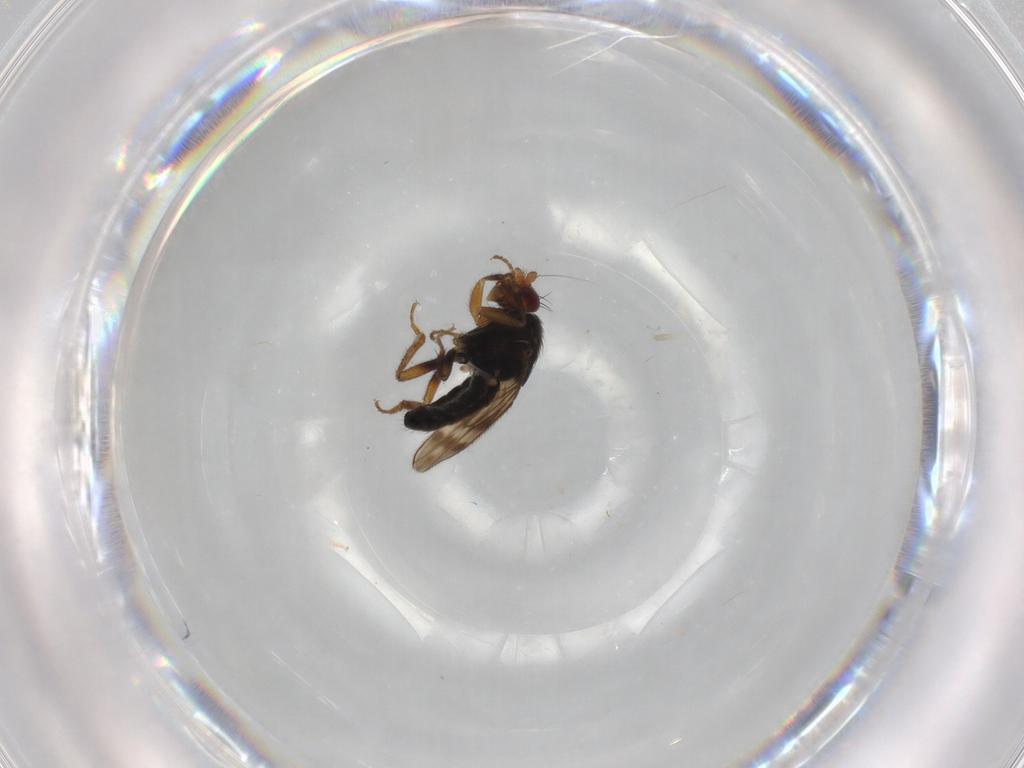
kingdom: Animalia
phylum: Arthropoda
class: Insecta
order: Diptera
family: Sphaeroceridae
